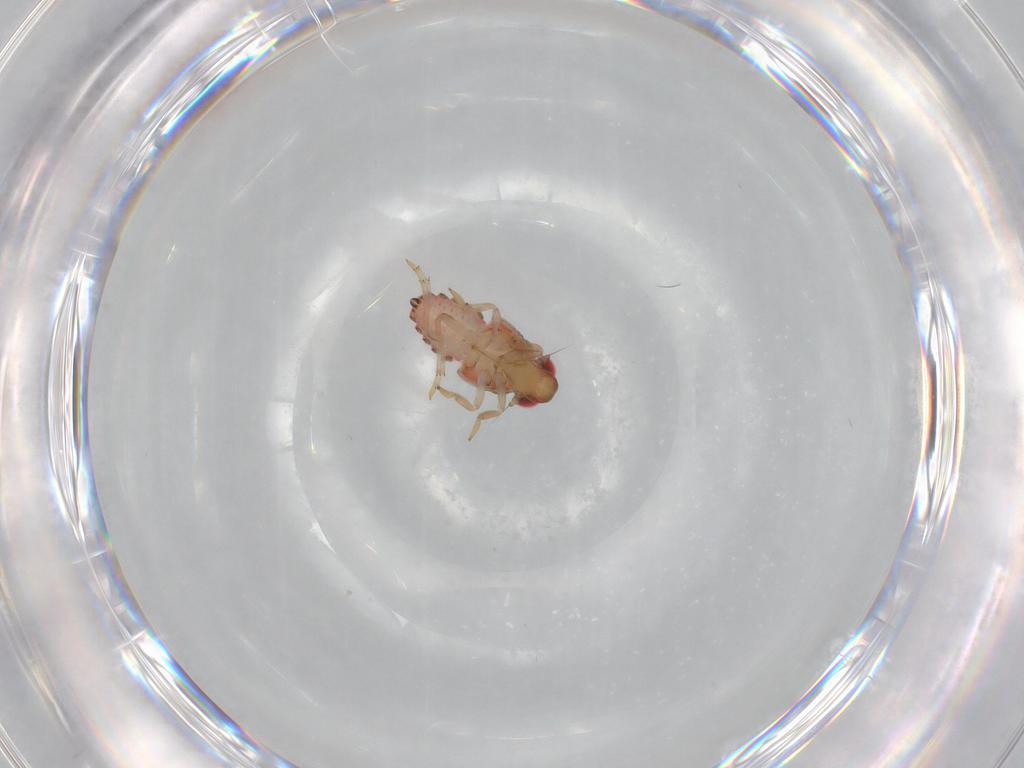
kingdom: Animalia
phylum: Arthropoda
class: Insecta
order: Hemiptera
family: Issidae
